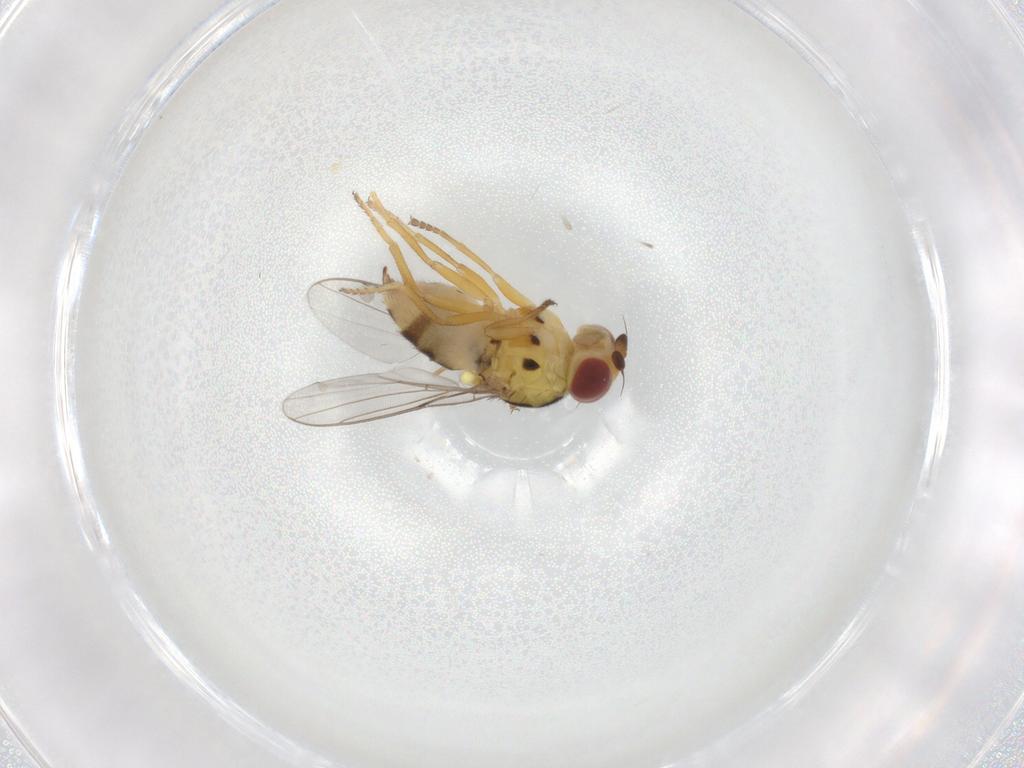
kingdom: Animalia
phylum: Arthropoda
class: Insecta
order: Diptera
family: Chloropidae
